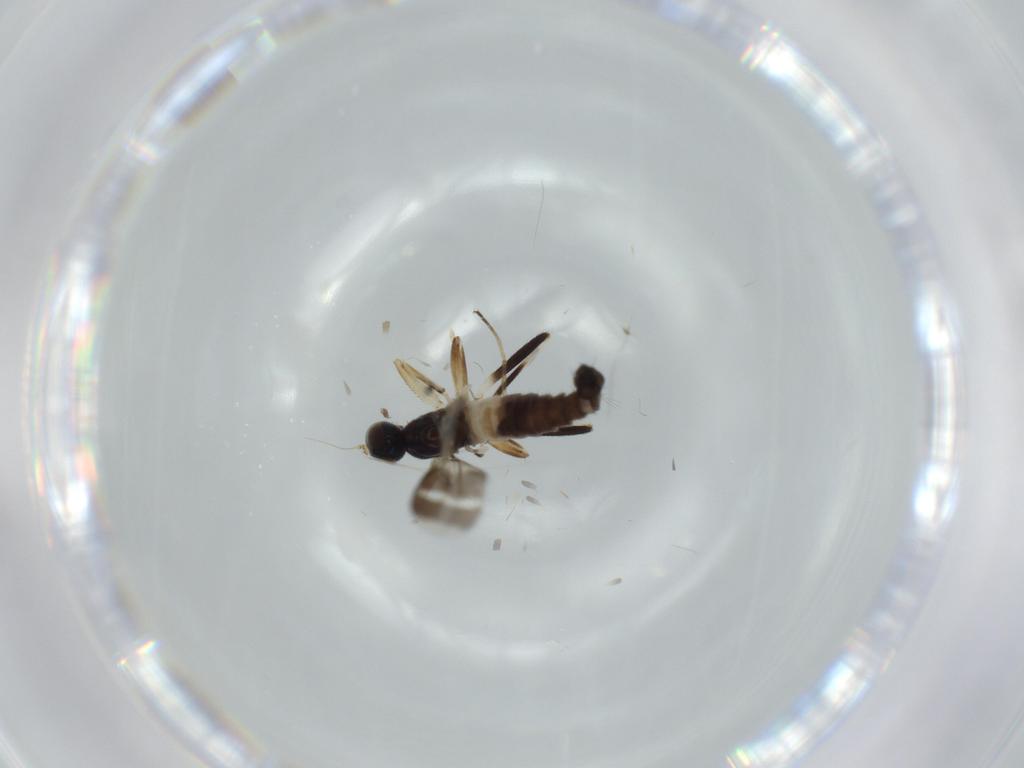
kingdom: Animalia
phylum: Arthropoda
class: Insecta
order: Diptera
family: Hybotidae
